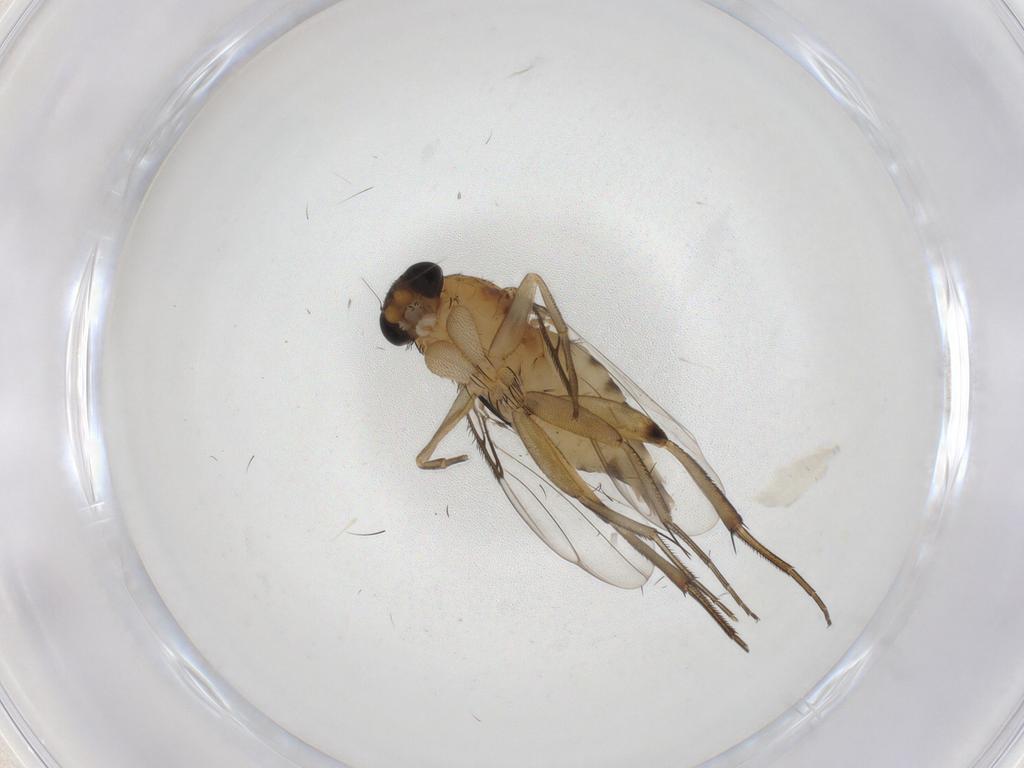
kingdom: Animalia
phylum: Arthropoda
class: Insecta
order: Diptera
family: Phoridae
